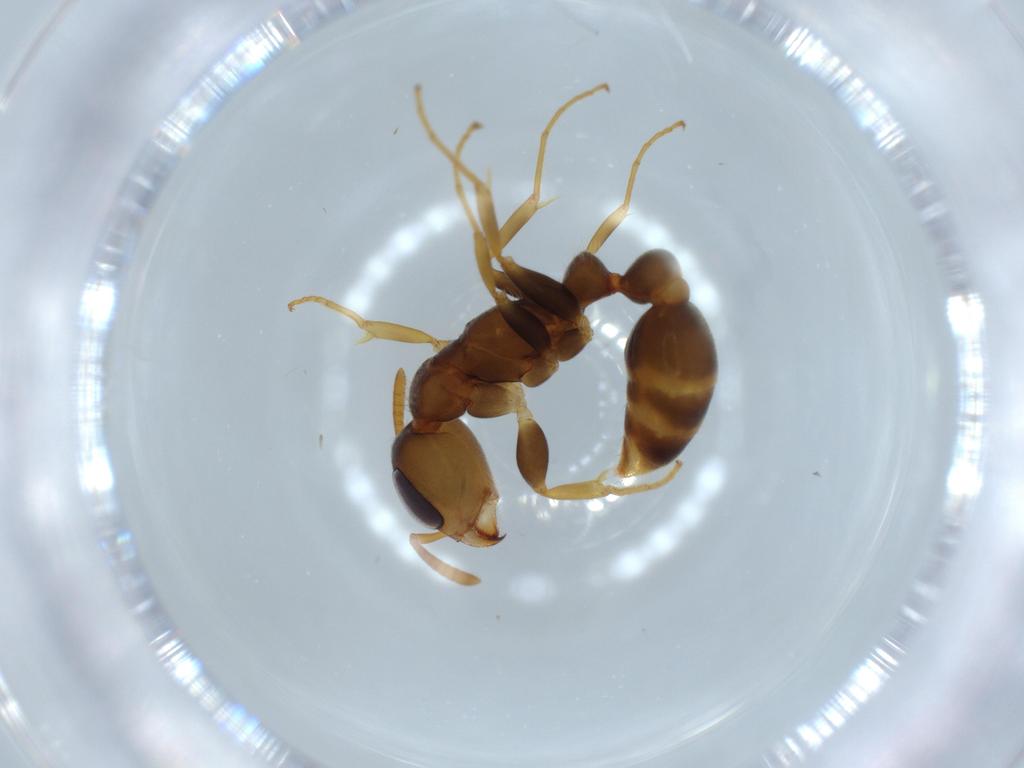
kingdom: Animalia
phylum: Arthropoda
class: Insecta
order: Hymenoptera
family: Formicidae
